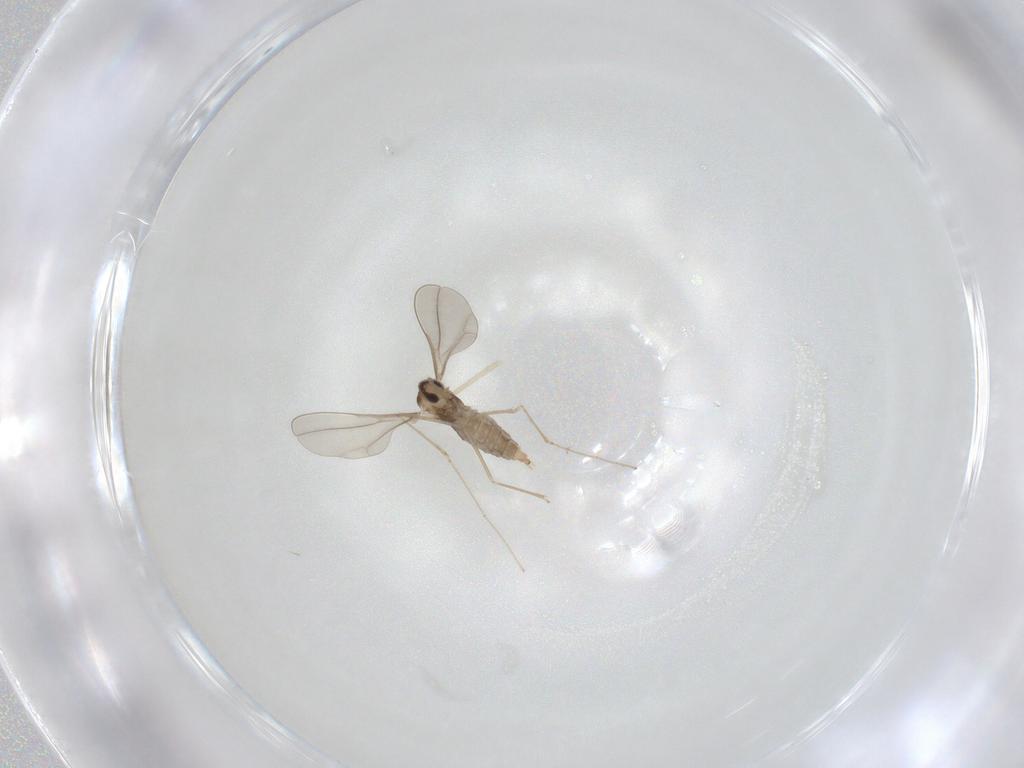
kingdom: Animalia
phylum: Arthropoda
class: Insecta
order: Diptera
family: Cecidomyiidae
